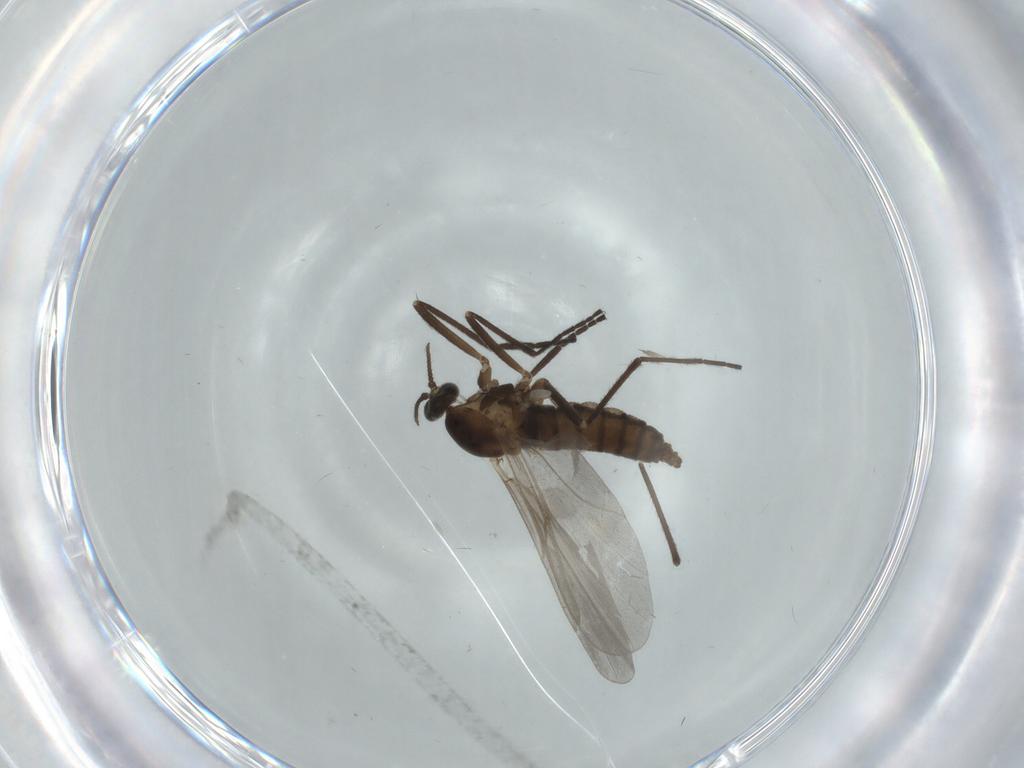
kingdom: Animalia
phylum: Arthropoda
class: Insecta
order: Diptera
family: Cecidomyiidae
